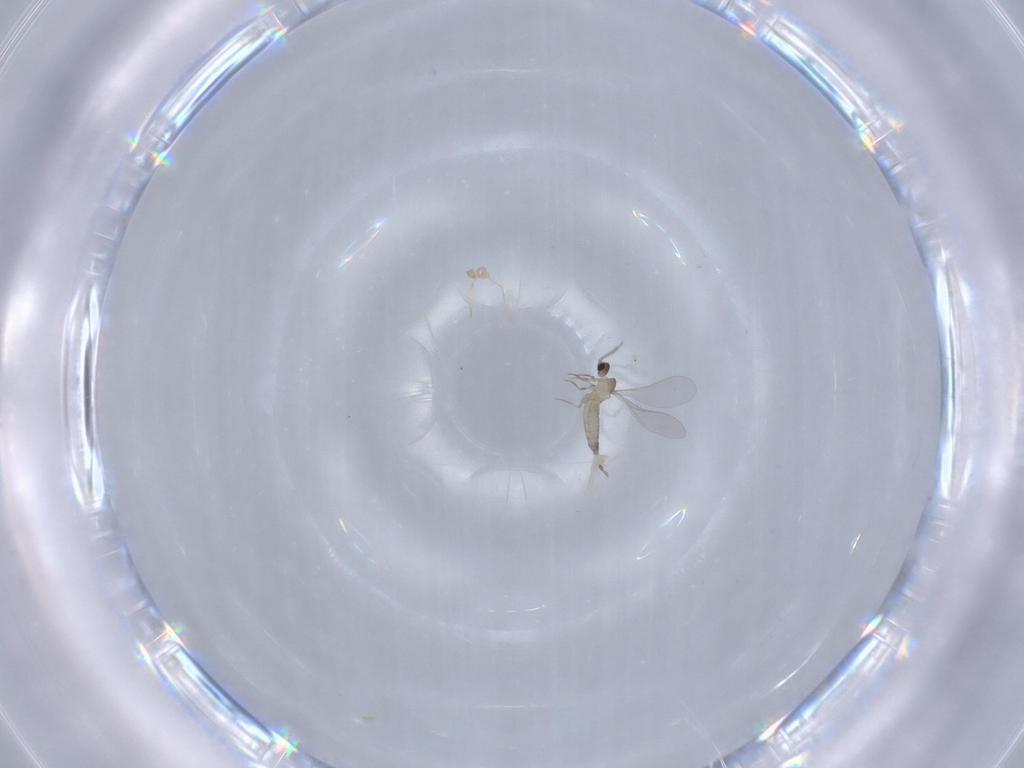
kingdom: Animalia
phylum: Arthropoda
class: Insecta
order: Diptera
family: Cecidomyiidae
